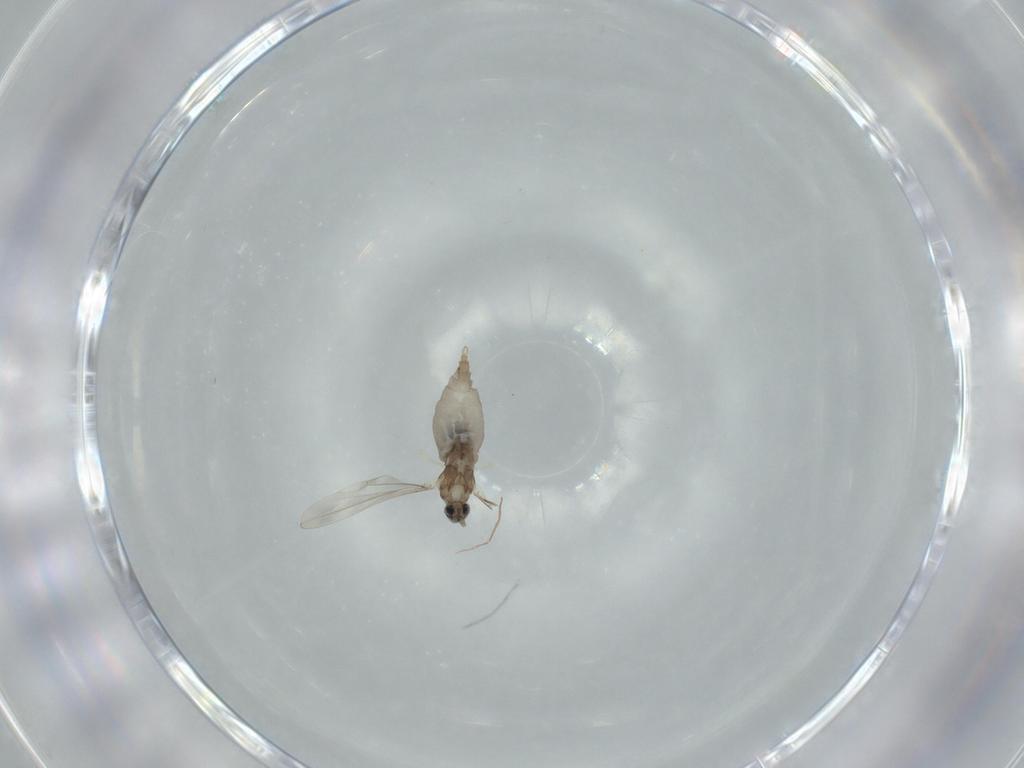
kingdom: Animalia
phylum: Arthropoda
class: Insecta
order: Diptera
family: Cecidomyiidae
